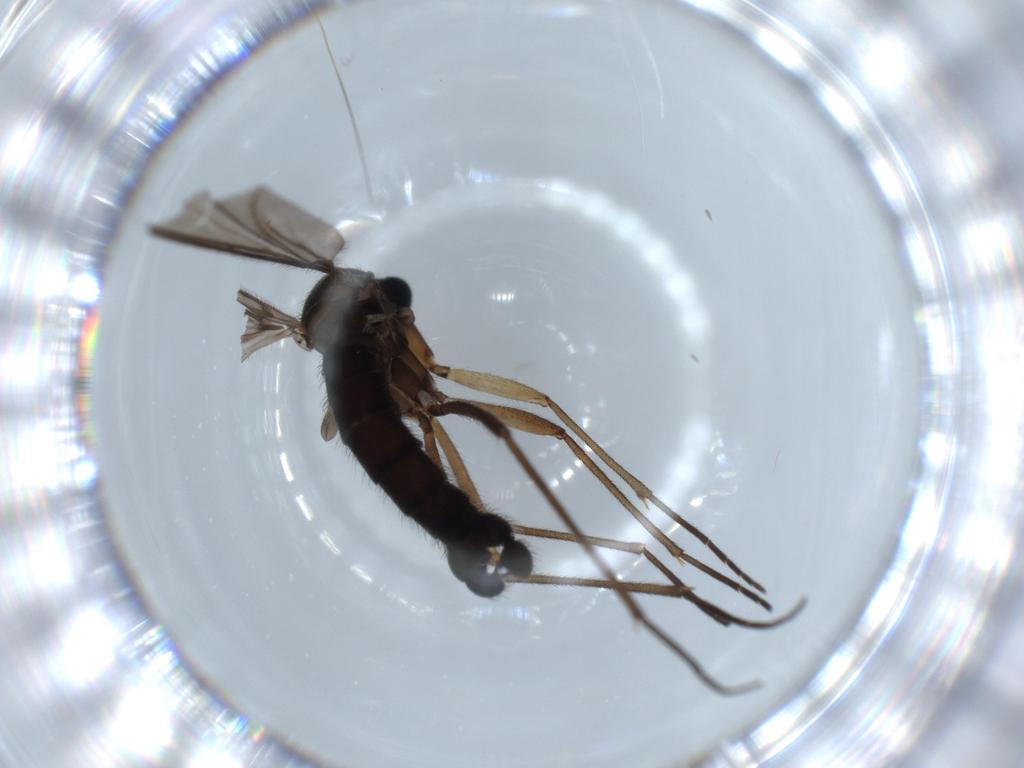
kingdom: Animalia
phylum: Arthropoda
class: Insecta
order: Diptera
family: Sciaridae
